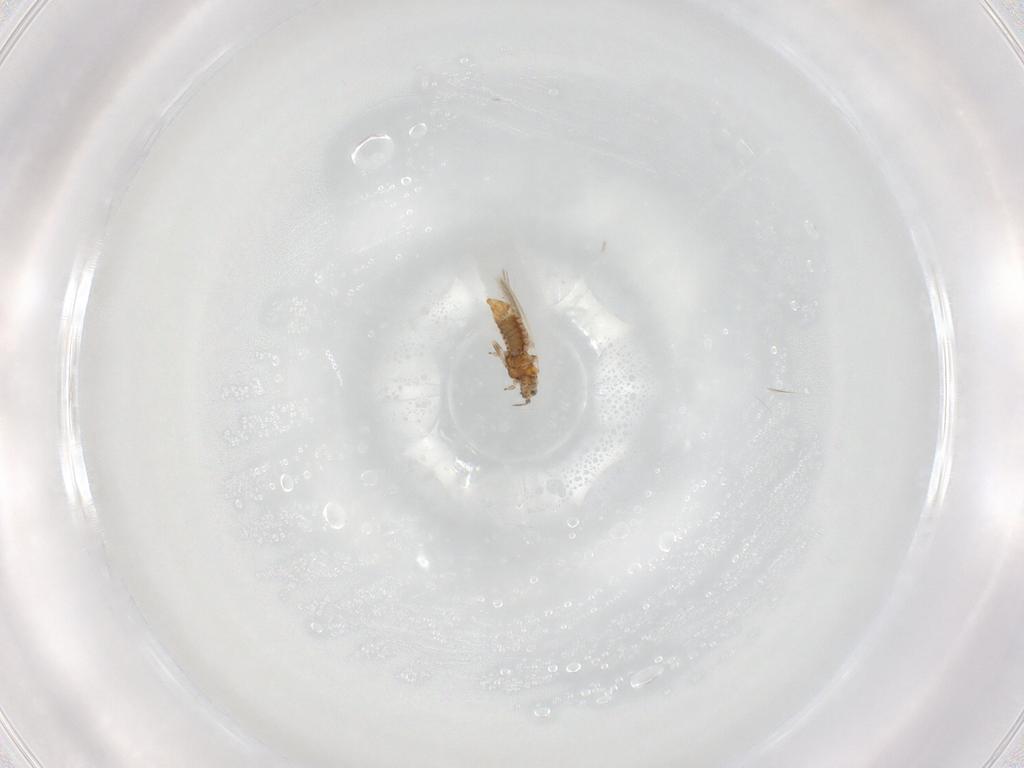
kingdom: Animalia
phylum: Arthropoda
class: Insecta
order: Thysanoptera
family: Thripidae
